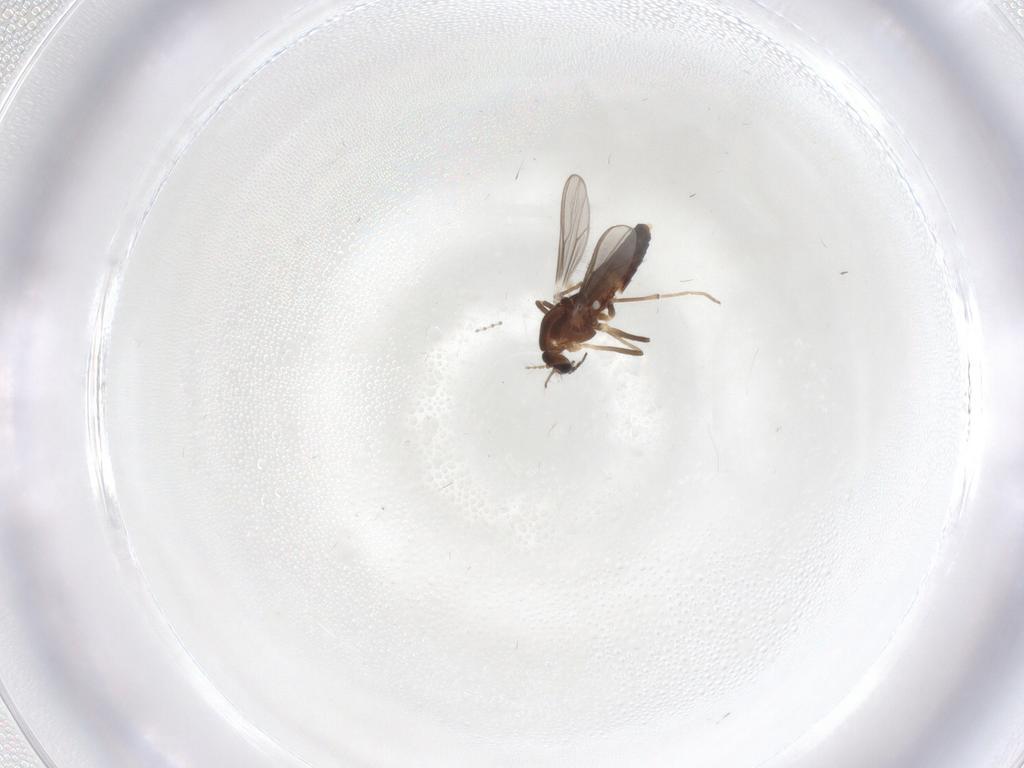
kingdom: Animalia
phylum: Arthropoda
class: Insecta
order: Diptera
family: Chironomidae
